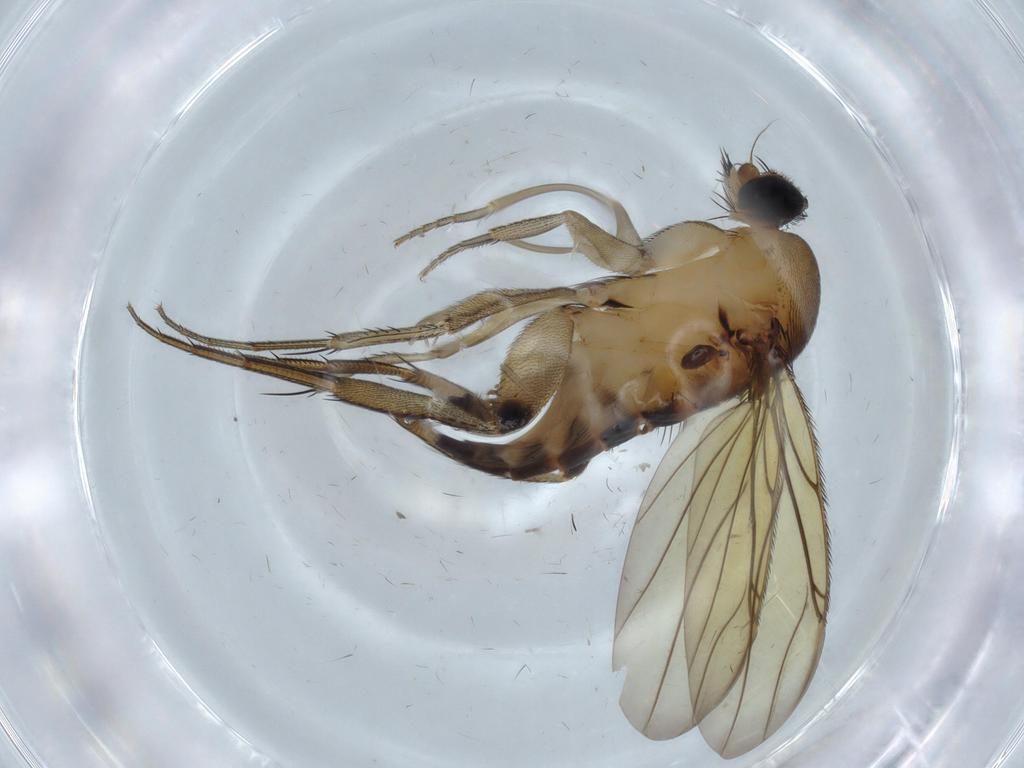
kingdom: Animalia
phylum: Arthropoda
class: Insecta
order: Diptera
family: Phoridae
